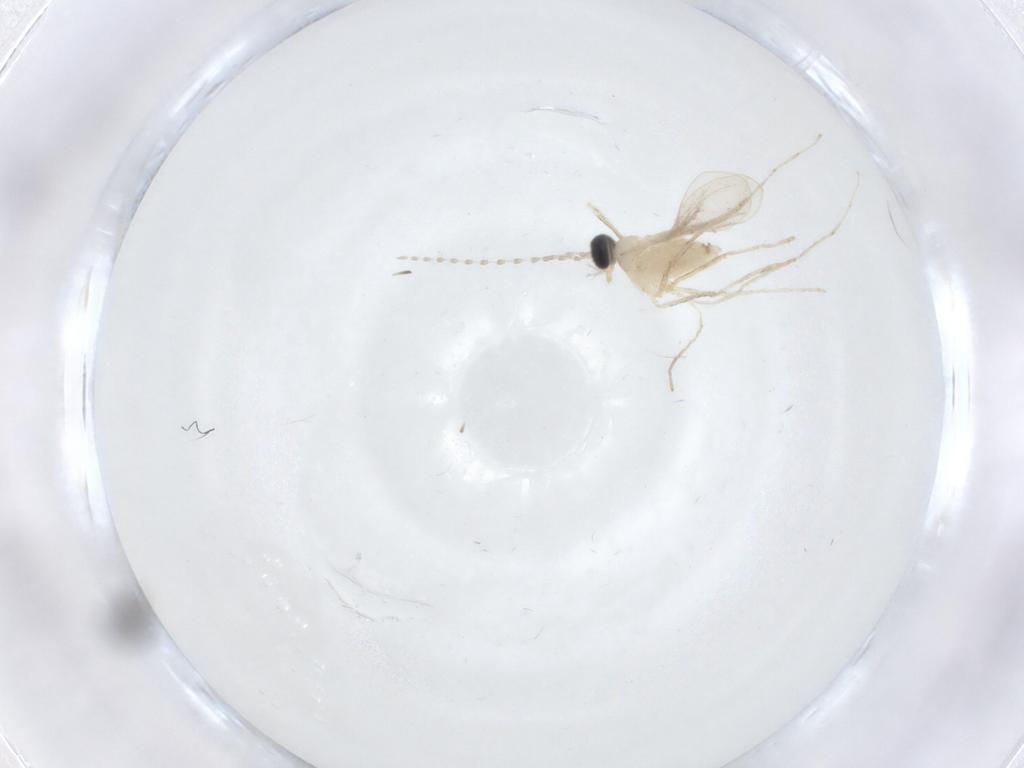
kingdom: Animalia
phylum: Arthropoda
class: Insecta
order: Diptera
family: Cecidomyiidae
